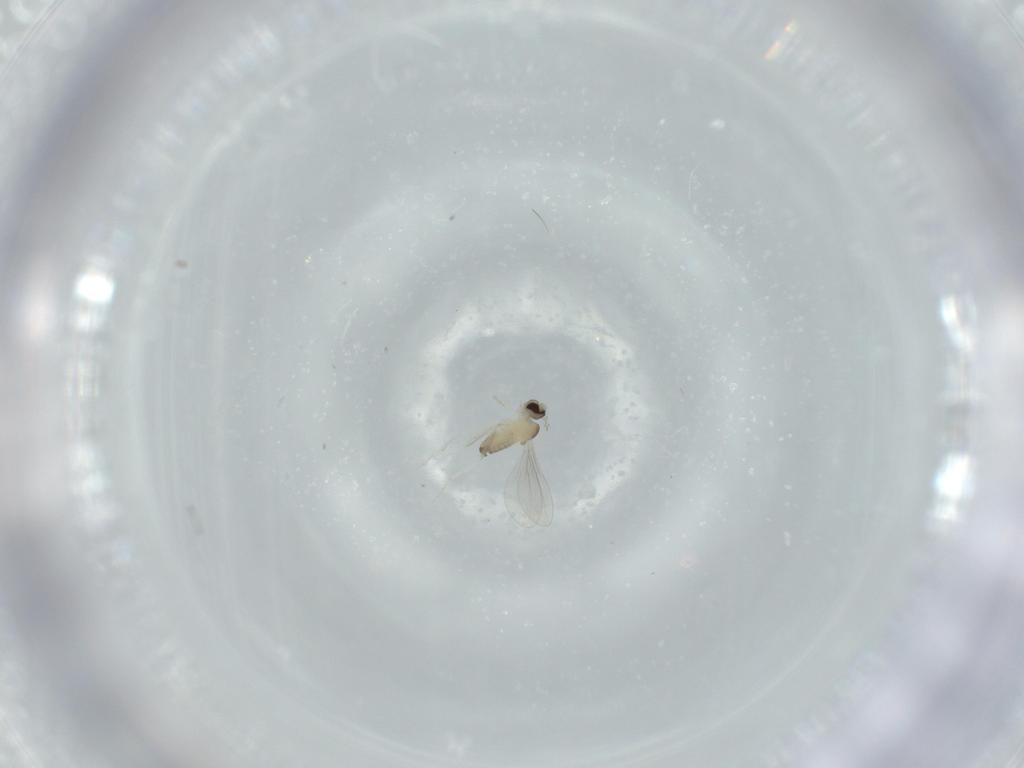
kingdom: Animalia
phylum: Arthropoda
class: Insecta
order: Diptera
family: Cecidomyiidae
